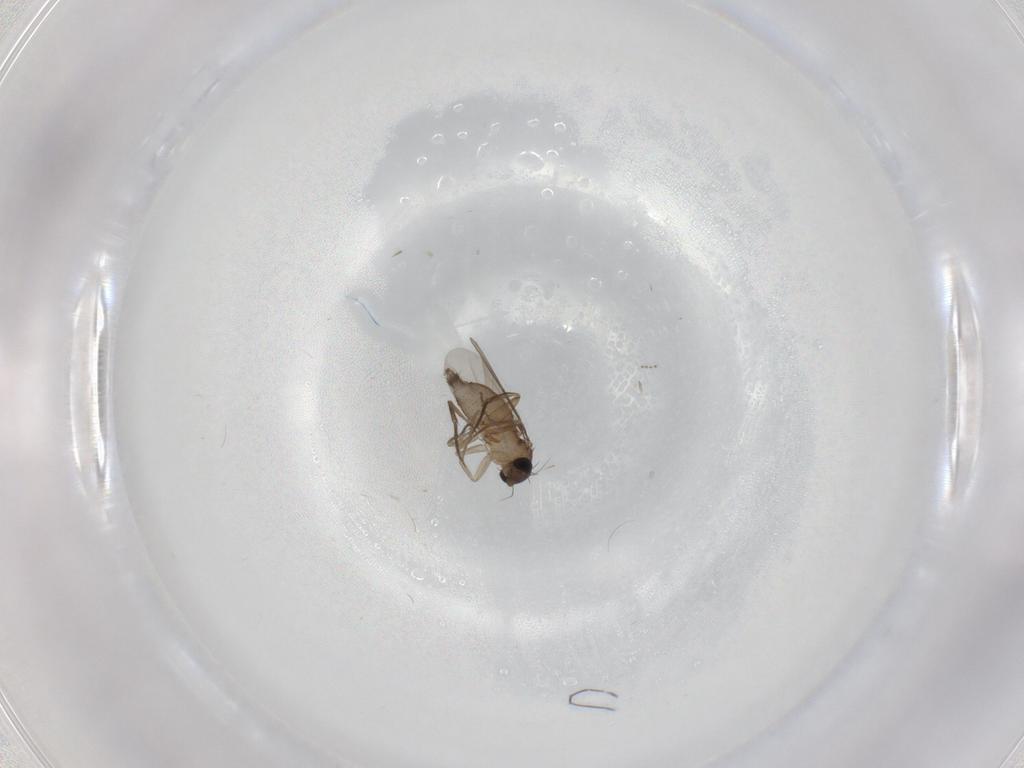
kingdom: Animalia
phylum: Arthropoda
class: Insecta
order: Diptera
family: Phoridae
